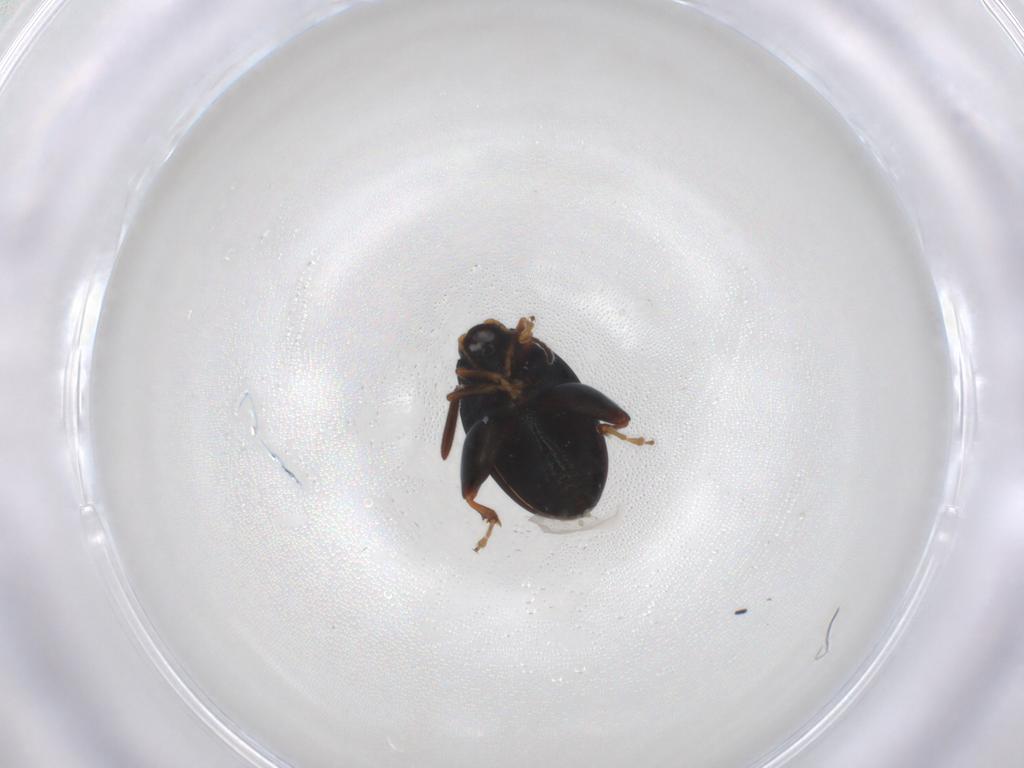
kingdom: Animalia
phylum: Arthropoda
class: Insecta
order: Coleoptera
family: Chrysomelidae
